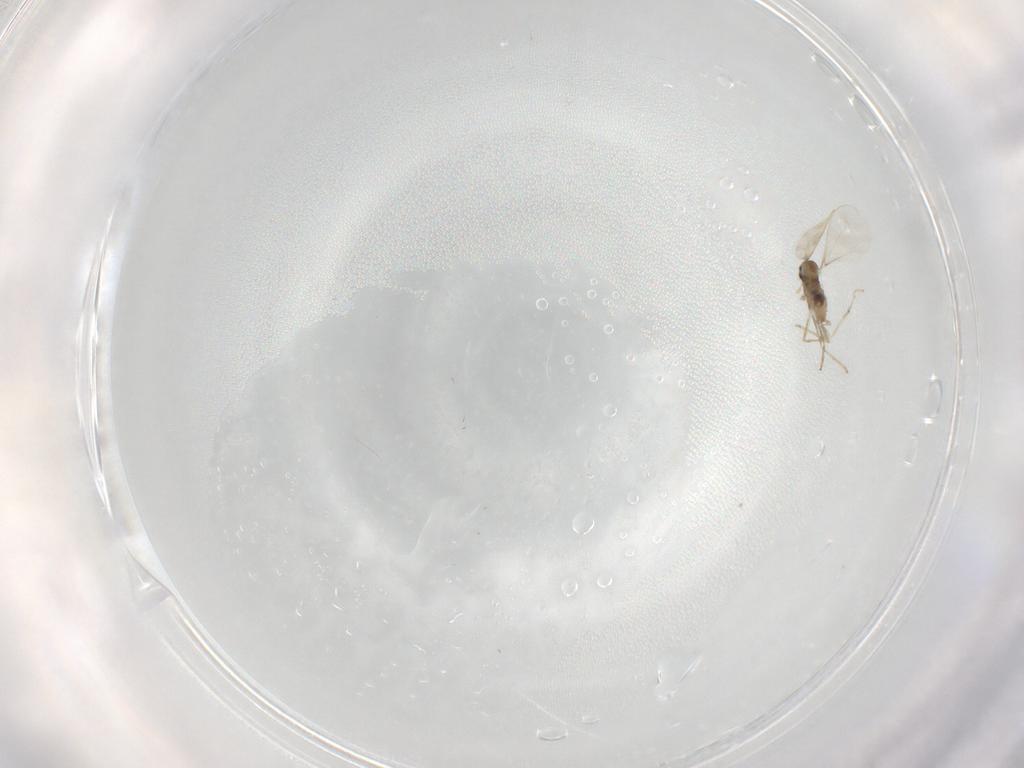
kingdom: Animalia
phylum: Arthropoda
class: Insecta
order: Diptera
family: Cecidomyiidae
